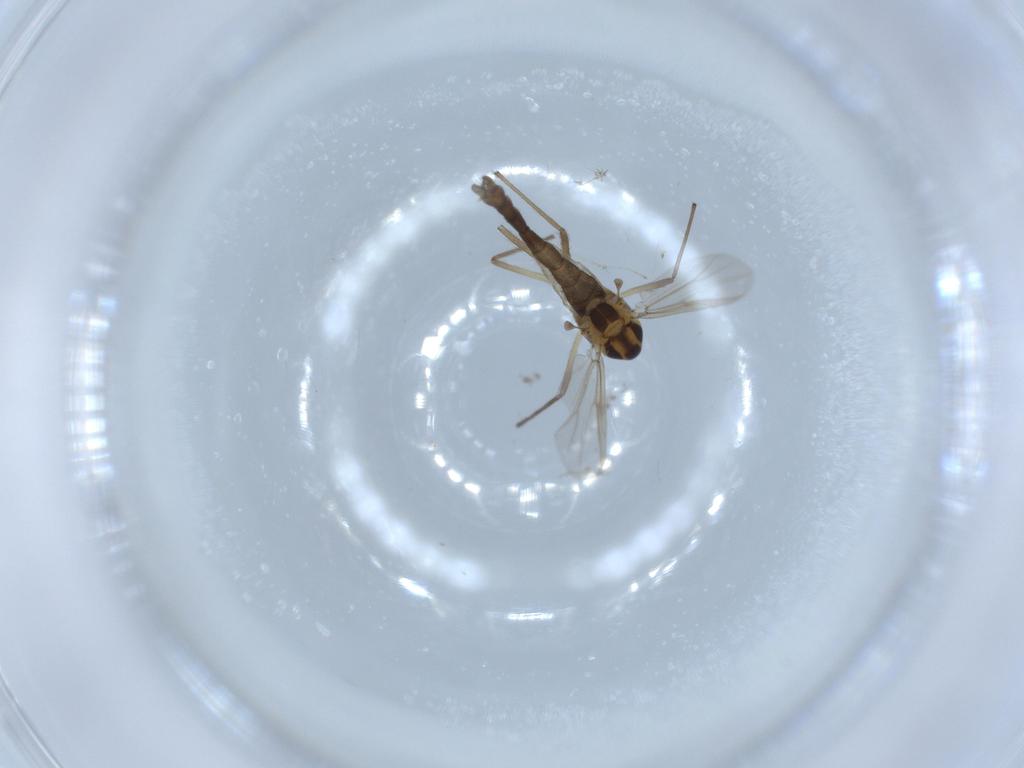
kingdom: Animalia
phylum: Arthropoda
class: Insecta
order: Diptera
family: Chironomidae
